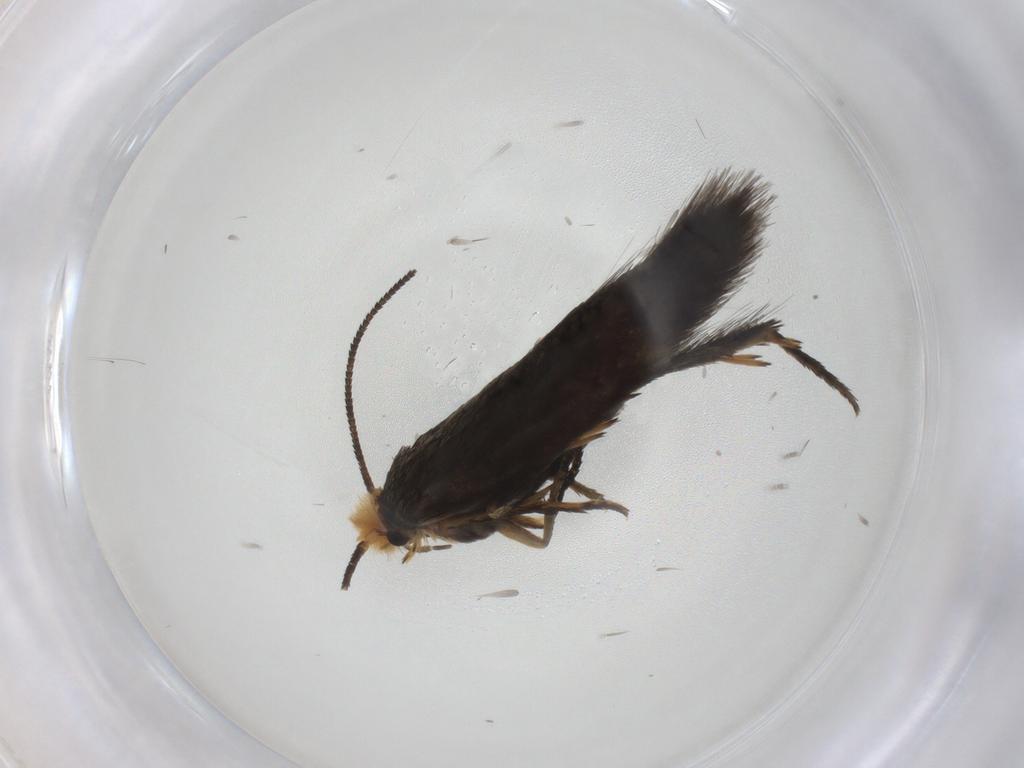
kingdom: Animalia
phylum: Arthropoda
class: Insecta
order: Lepidoptera
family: Nepticulidae
